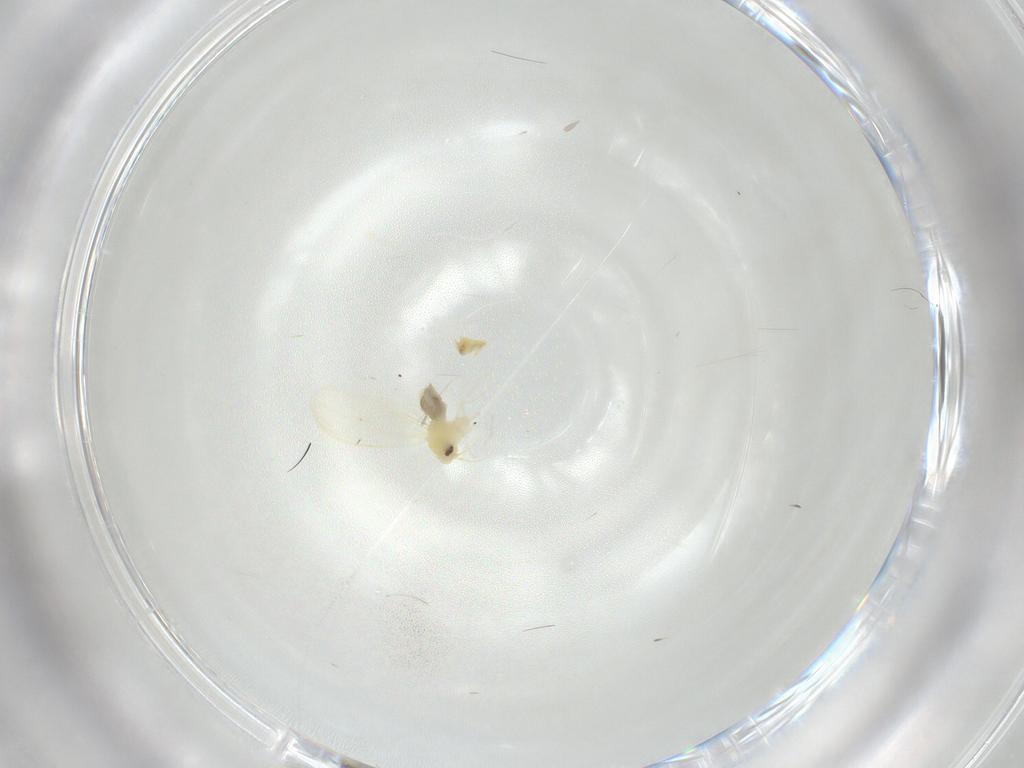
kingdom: Animalia
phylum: Arthropoda
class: Insecta
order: Hemiptera
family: Aleyrodidae
